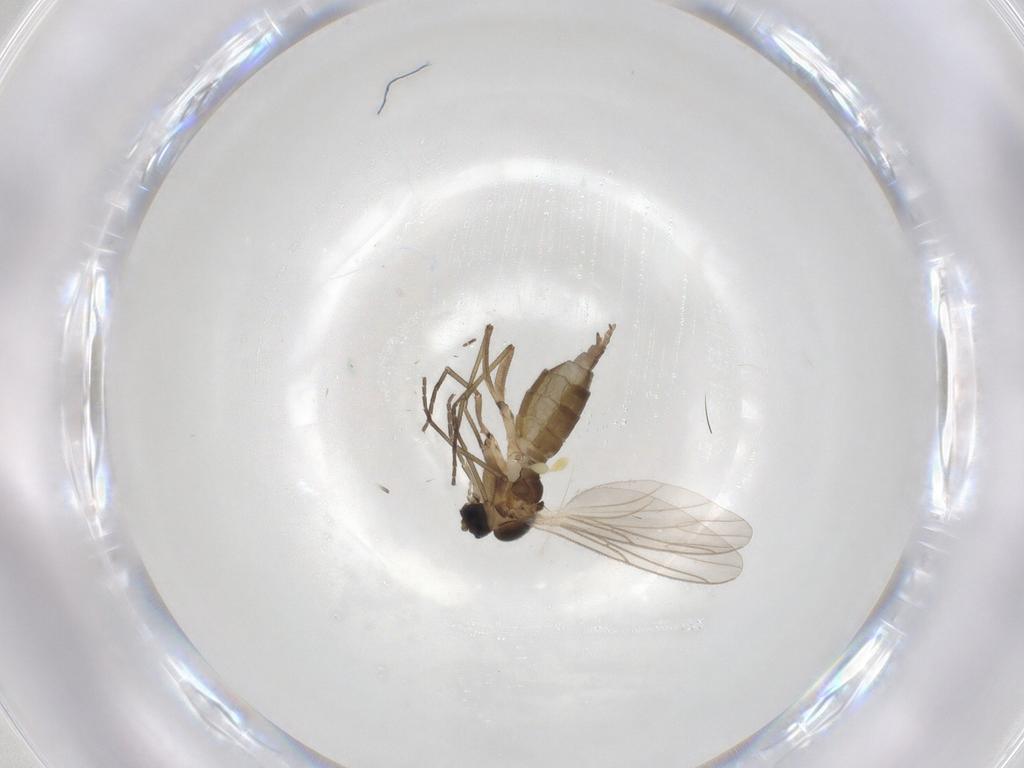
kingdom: Animalia
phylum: Arthropoda
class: Insecta
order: Diptera
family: Ceratopogonidae
